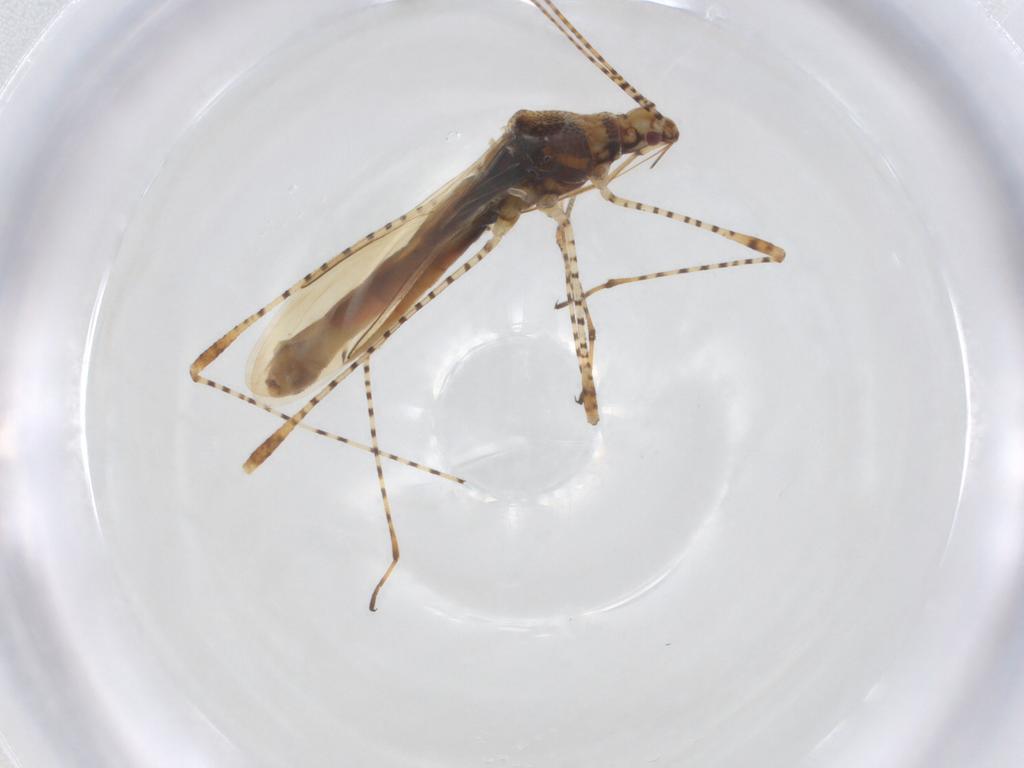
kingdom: Animalia
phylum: Arthropoda
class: Insecta
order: Hemiptera
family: Berytidae
